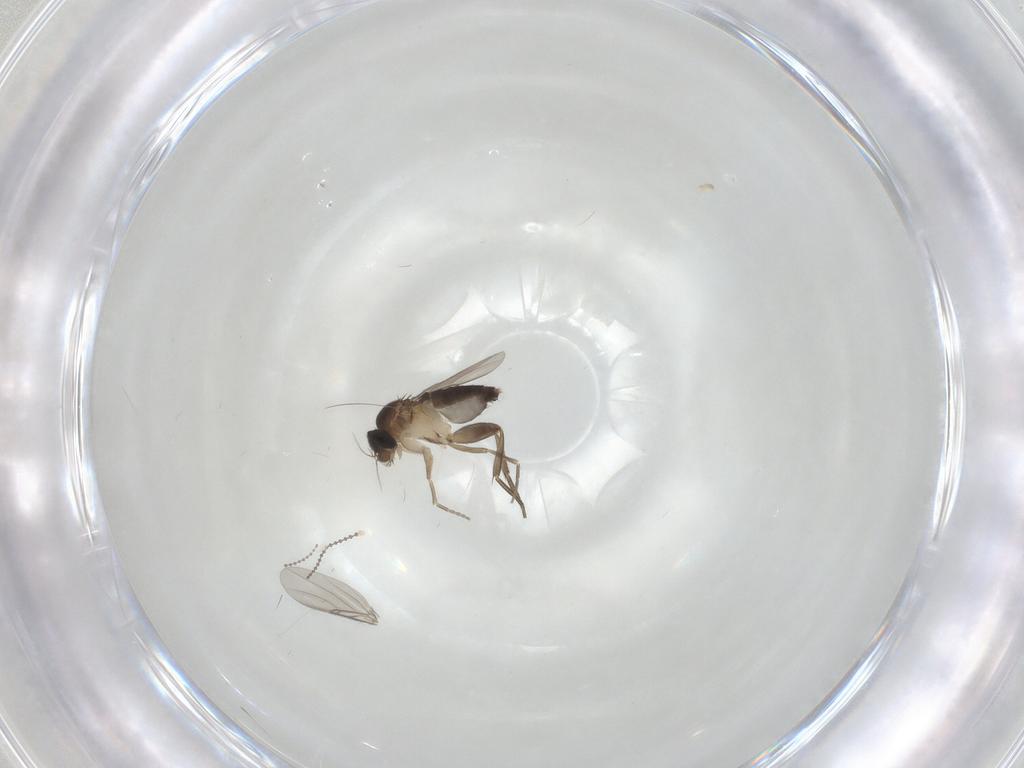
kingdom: Animalia
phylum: Arthropoda
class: Insecta
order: Diptera
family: Phoridae
